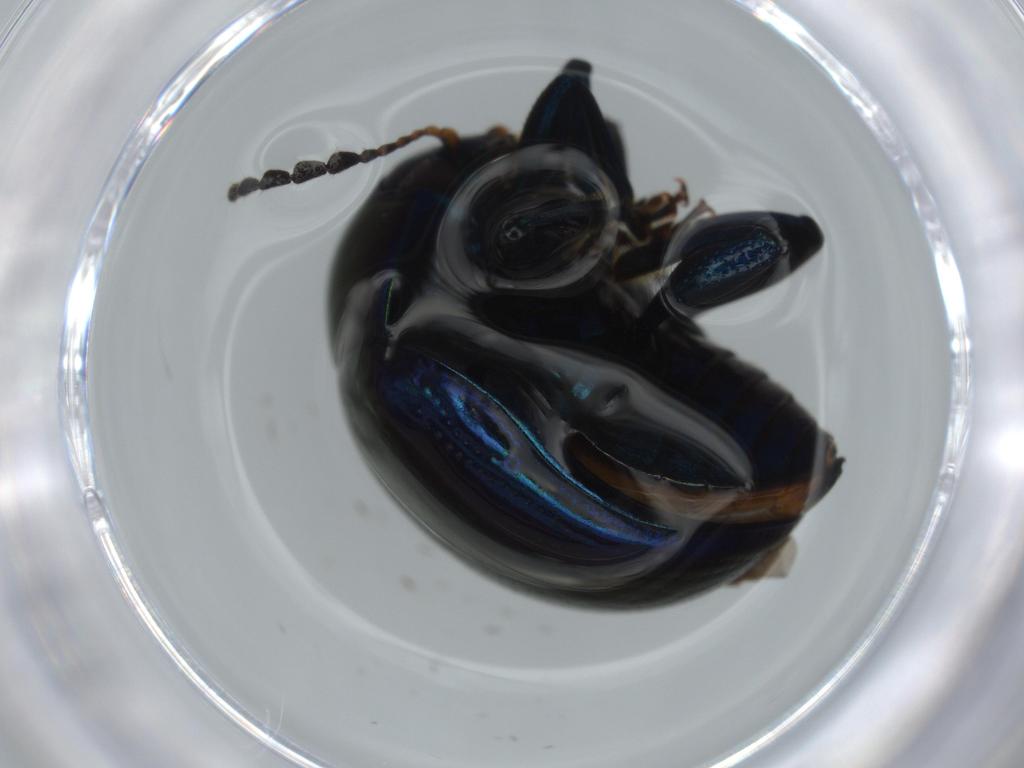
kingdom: Animalia
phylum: Arthropoda
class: Insecta
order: Coleoptera
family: Chrysomelidae
